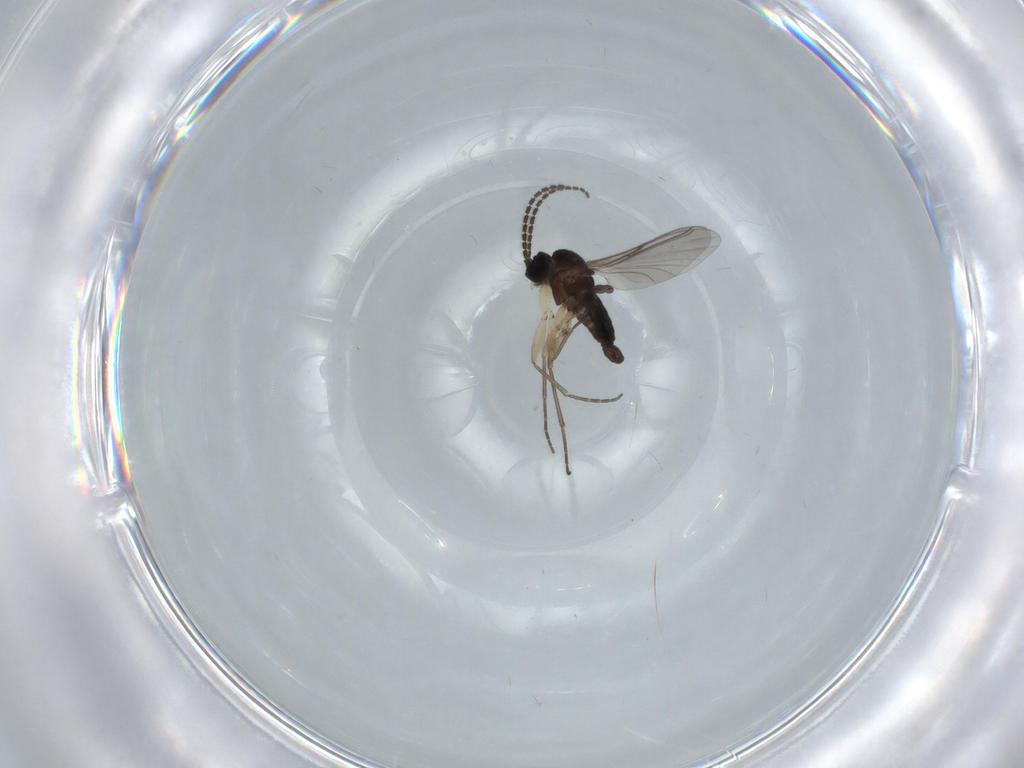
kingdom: Animalia
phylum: Arthropoda
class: Insecta
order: Diptera
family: Sciaridae
